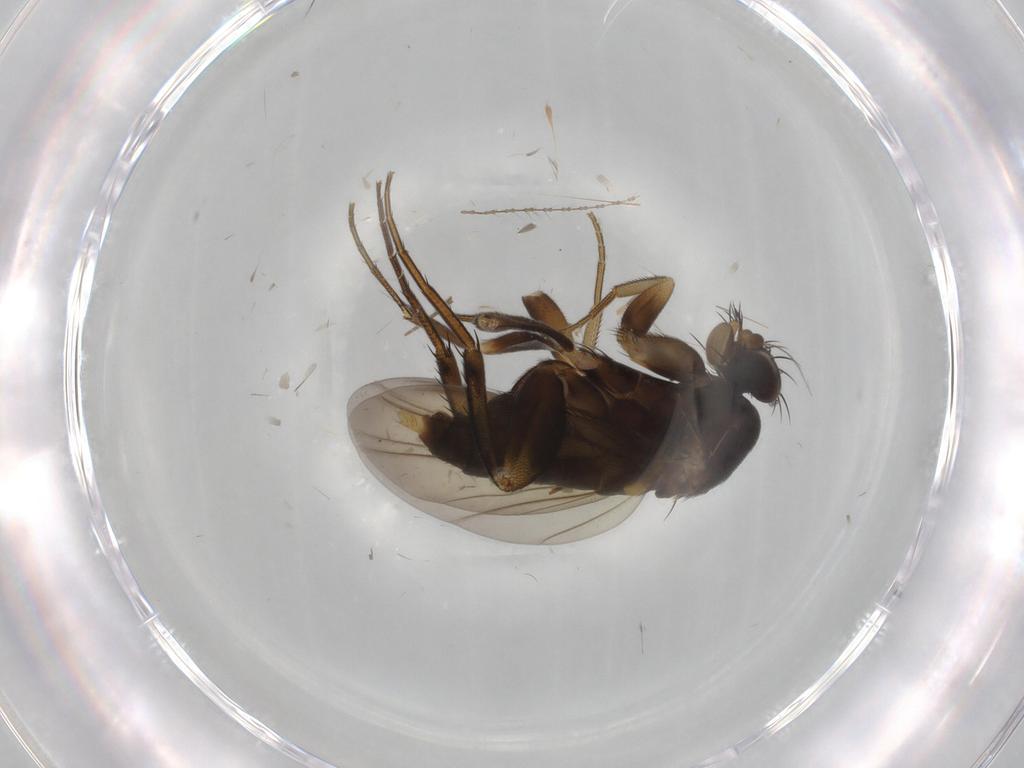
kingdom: Animalia
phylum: Arthropoda
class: Insecta
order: Diptera
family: Phoridae
